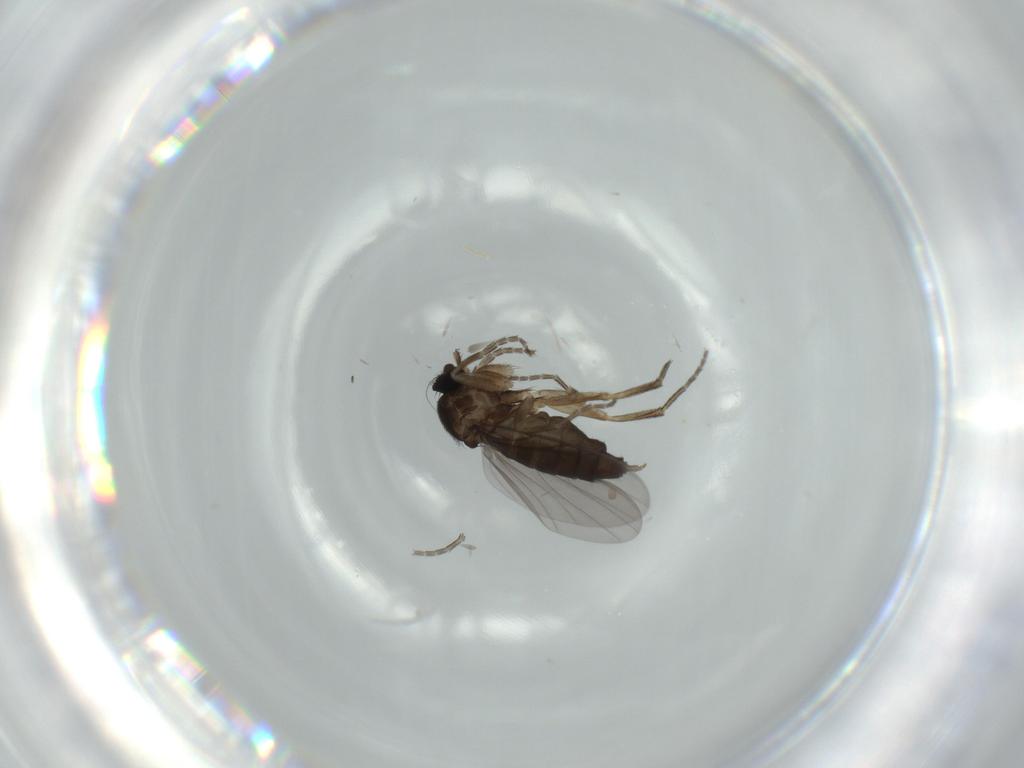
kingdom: Animalia
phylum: Arthropoda
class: Insecta
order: Diptera
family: Phoridae
